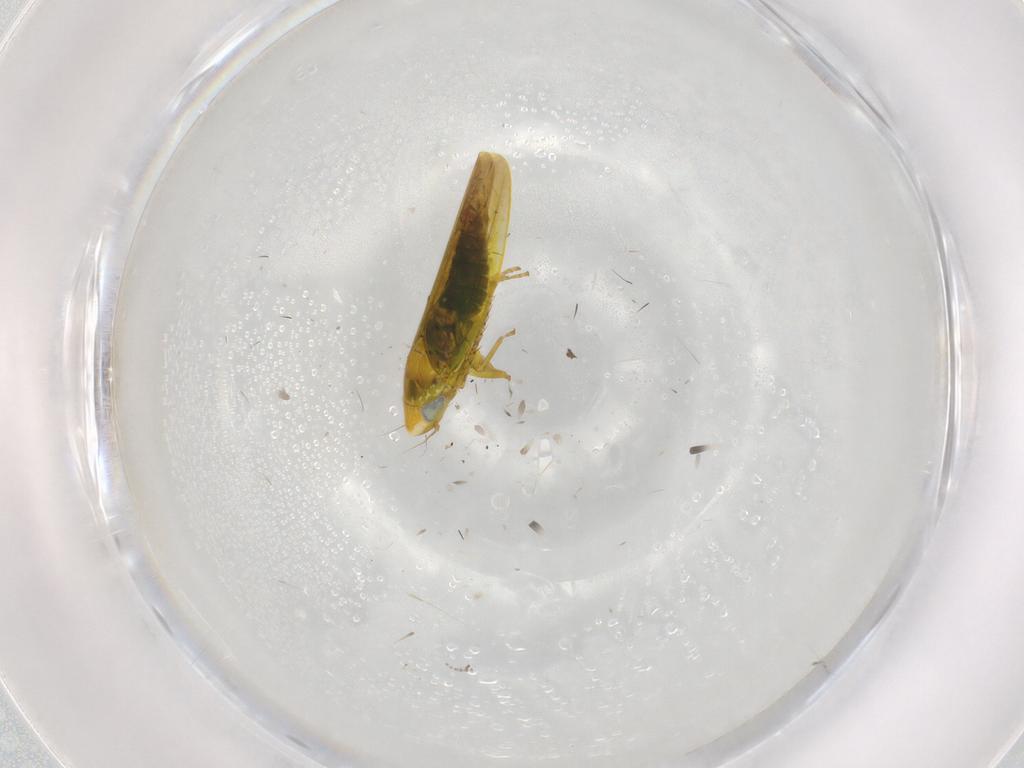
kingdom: Animalia
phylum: Arthropoda
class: Insecta
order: Hemiptera
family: Cicadellidae
